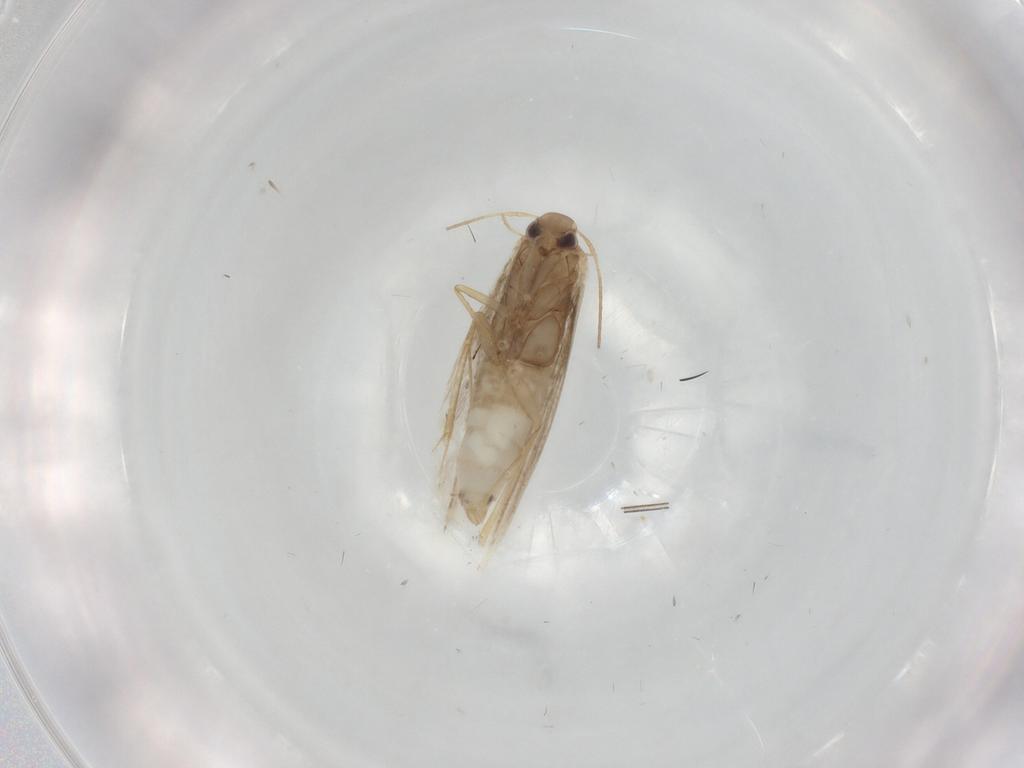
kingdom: Animalia
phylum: Arthropoda
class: Insecta
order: Lepidoptera
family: Gracillariidae
